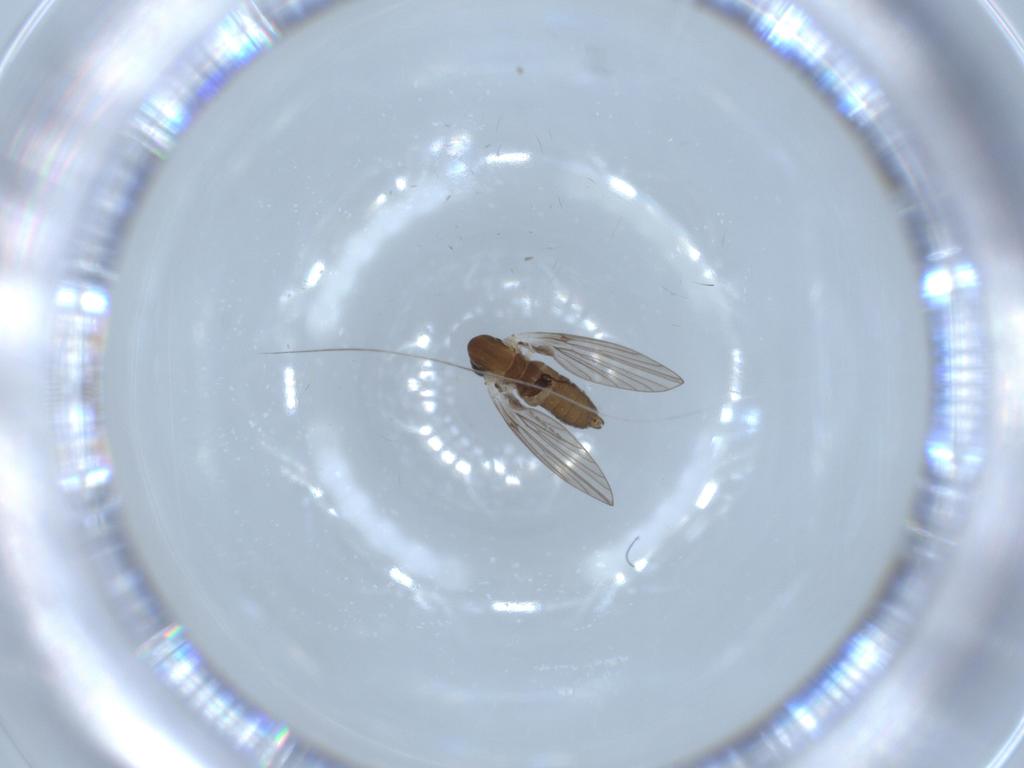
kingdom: Animalia
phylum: Arthropoda
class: Insecta
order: Diptera
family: Psychodidae
